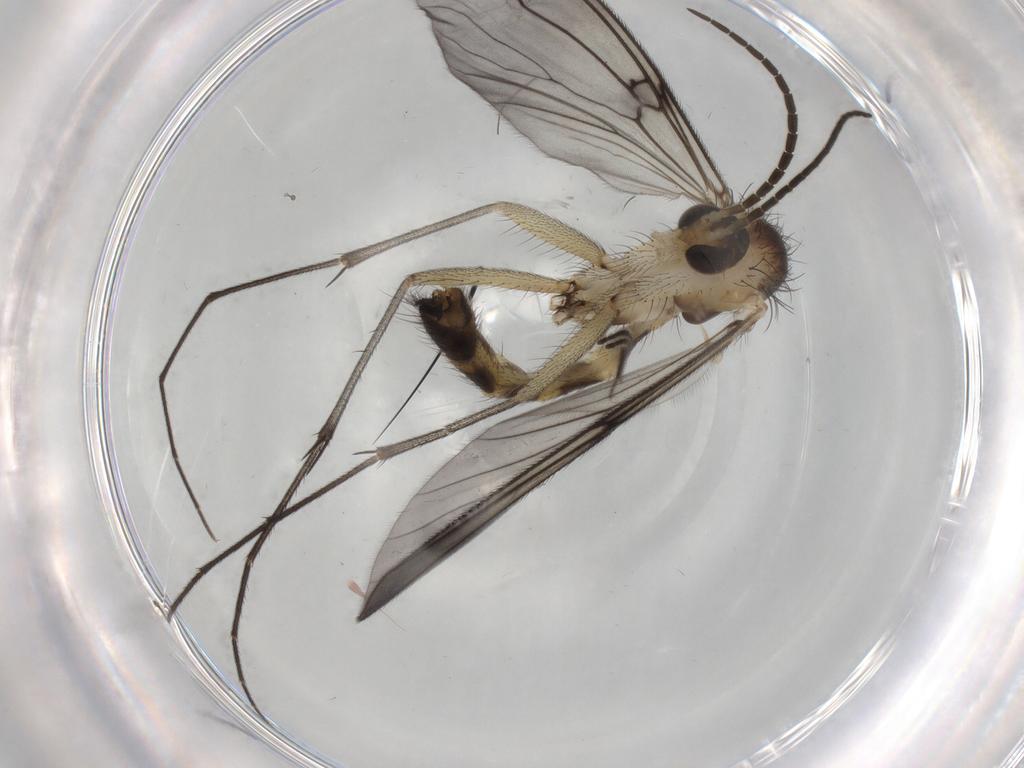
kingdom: Animalia
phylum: Arthropoda
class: Insecta
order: Diptera
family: Mycetophilidae
